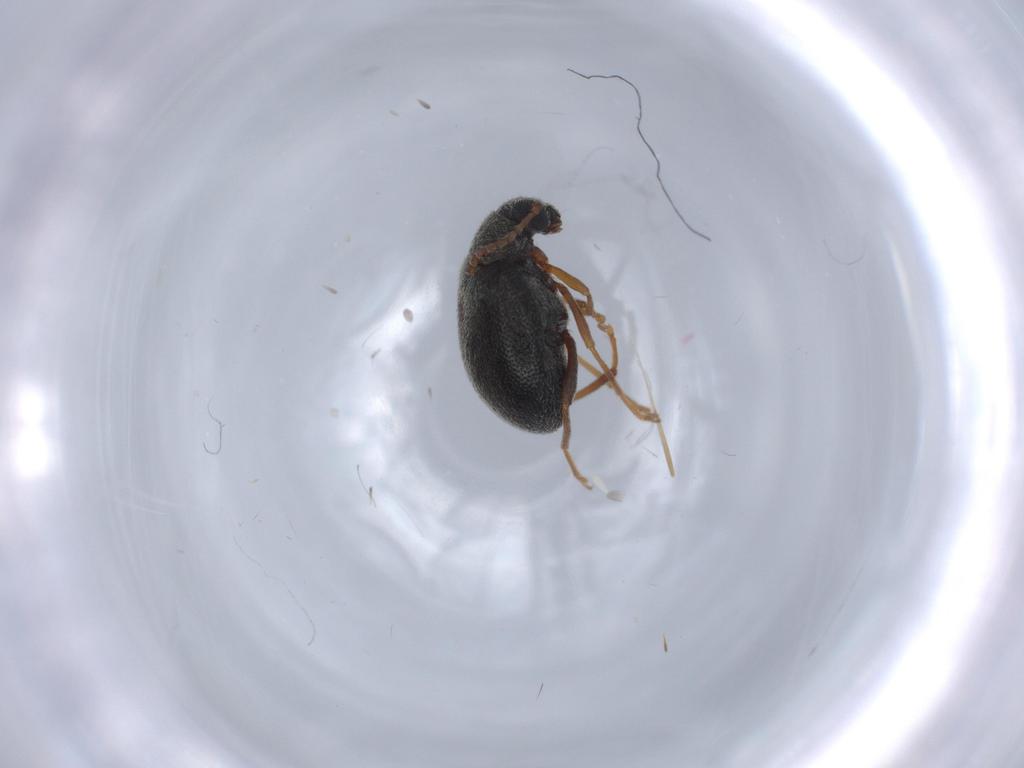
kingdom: Animalia
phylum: Arthropoda
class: Insecta
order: Coleoptera
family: Aderidae
